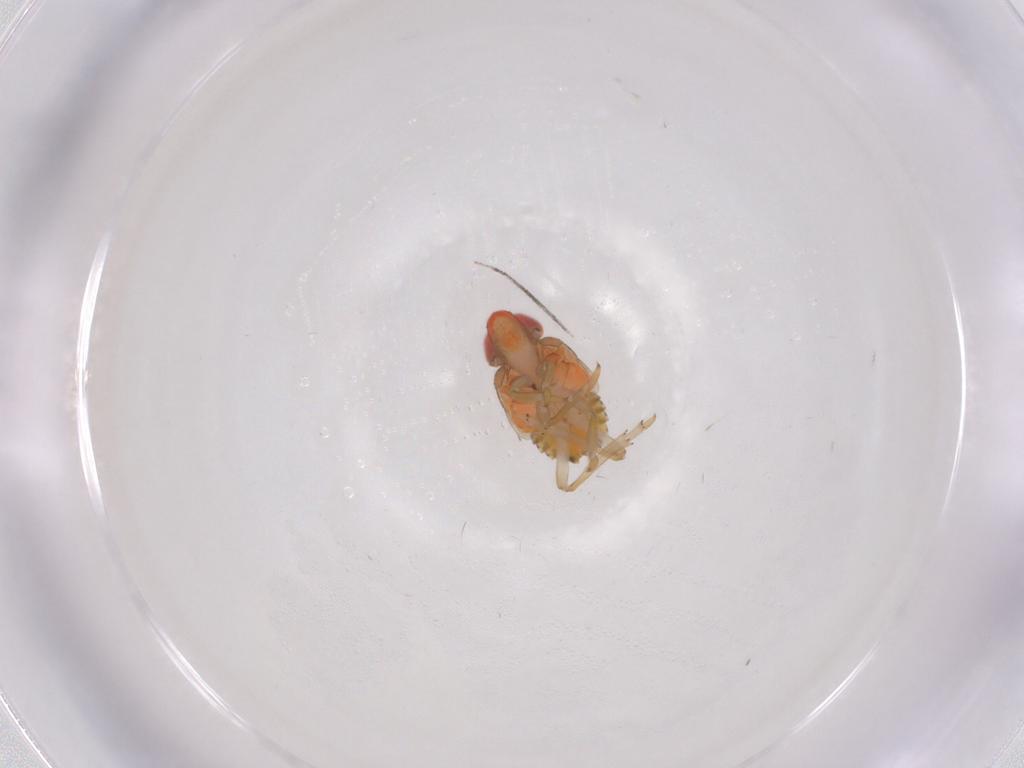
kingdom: Animalia
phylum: Arthropoda
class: Insecta
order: Hemiptera
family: Issidae
